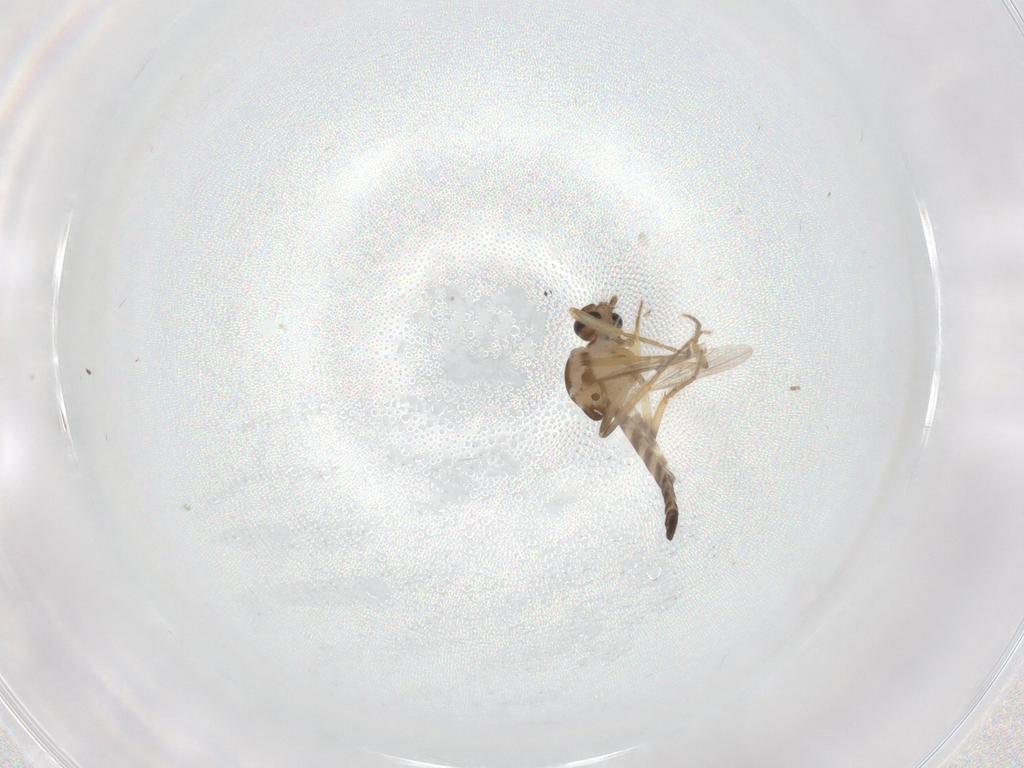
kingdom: Animalia
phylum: Arthropoda
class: Insecta
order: Diptera
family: Ceratopogonidae
